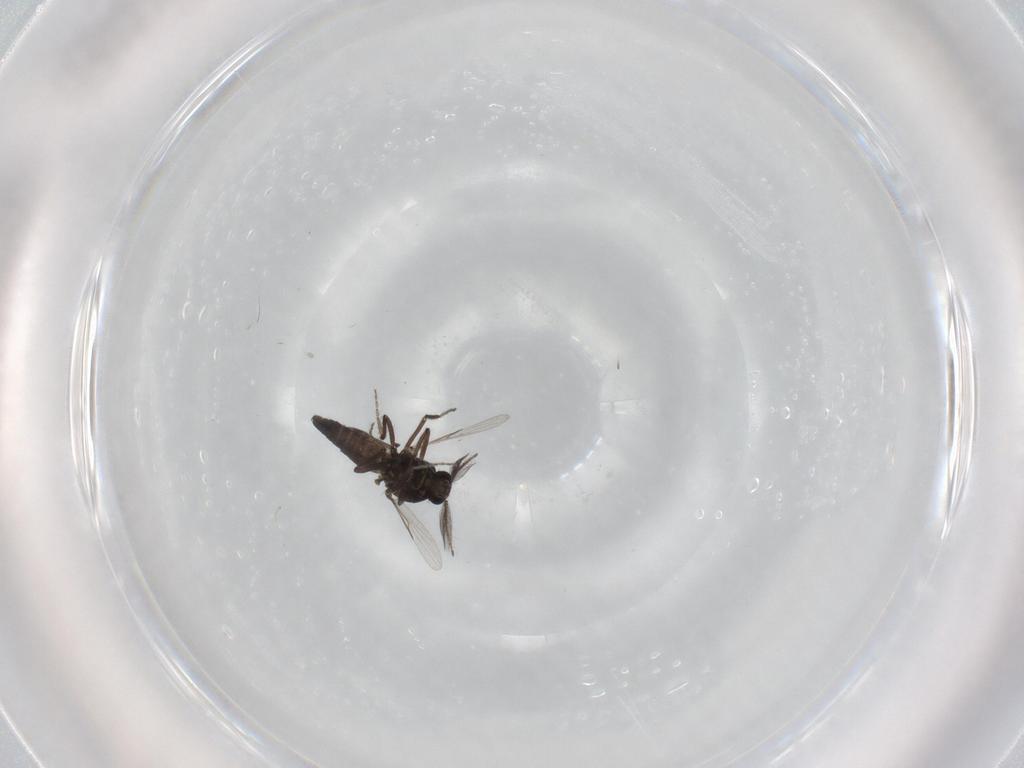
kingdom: Animalia
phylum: Arthropoda
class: Insecta
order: Diptera
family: Ceratopogonidae
